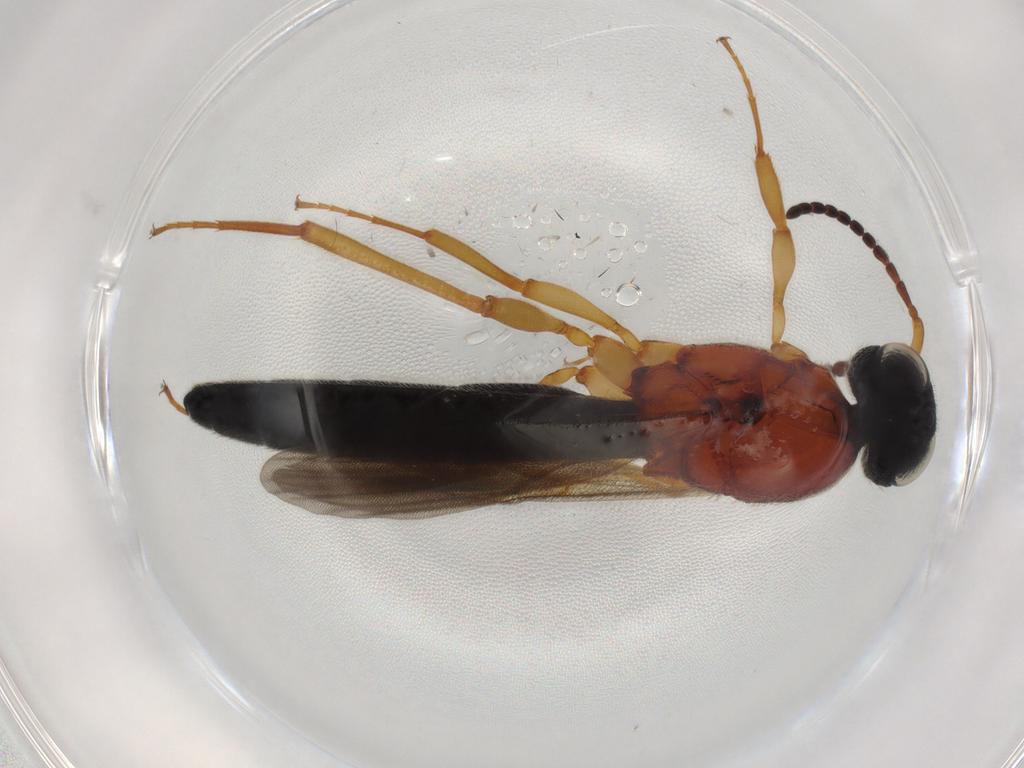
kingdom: Animalia
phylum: Arthropoda
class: Insecta
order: Hymenoptera
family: Scelionidae
